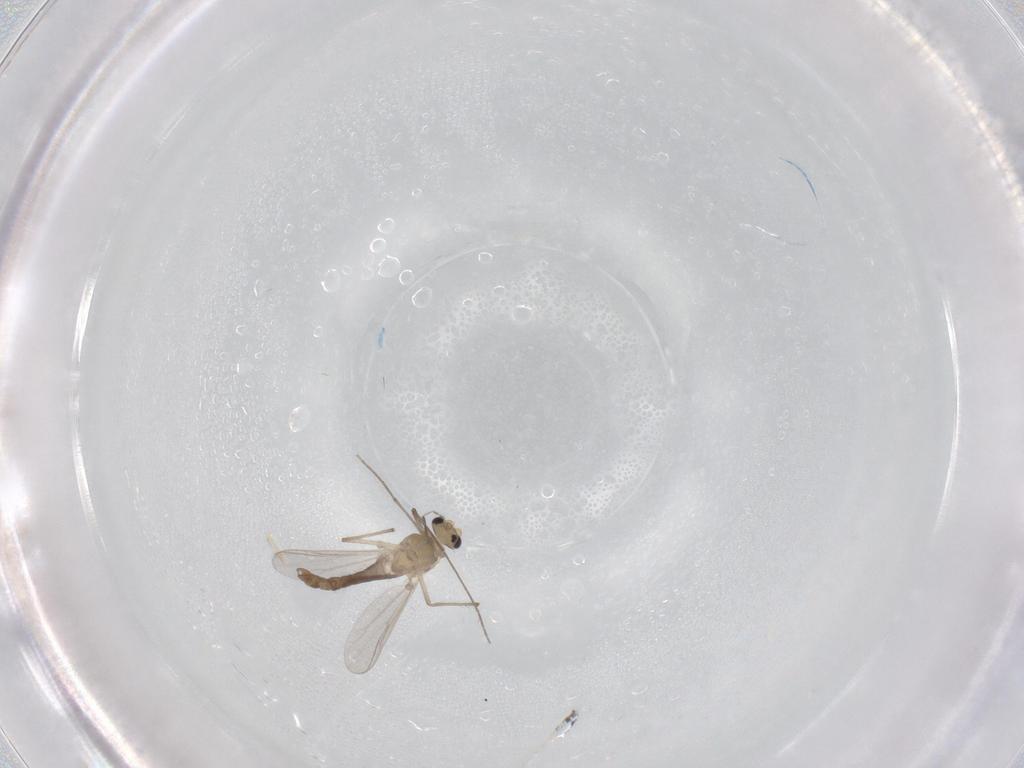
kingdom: Animalia
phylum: Arthropoda
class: Insecta
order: Diptera
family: Chironomidae
